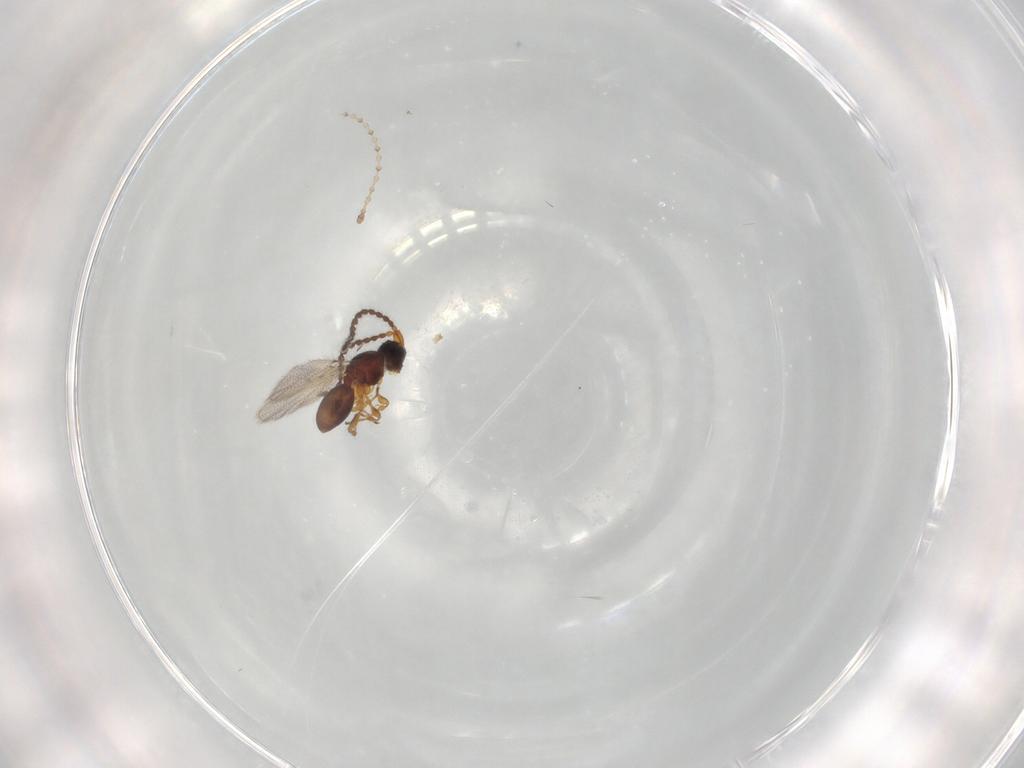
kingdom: Animalia
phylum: Arthropoda
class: Insecta
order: Hymenoptera
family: Diapriidae
